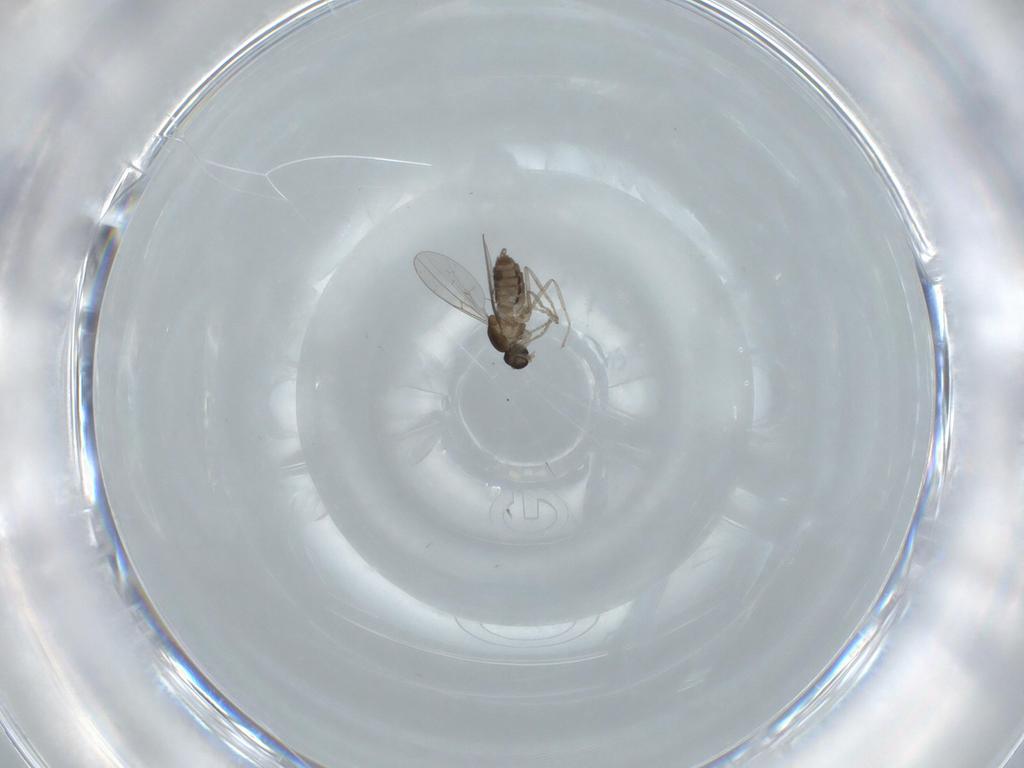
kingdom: Animalia
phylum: Arthropoda
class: Insecta
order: Diptera
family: Cecidomyiidae
